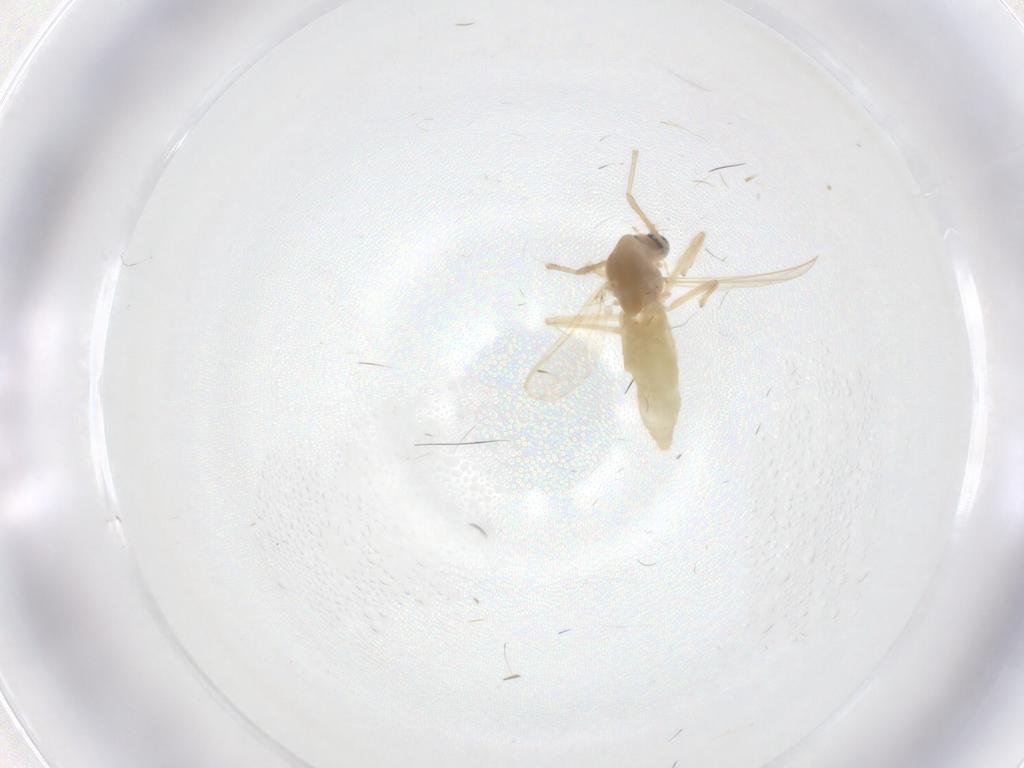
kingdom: Animalia
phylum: Arthropoda
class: Insecta
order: Diptera
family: Chironomidae
